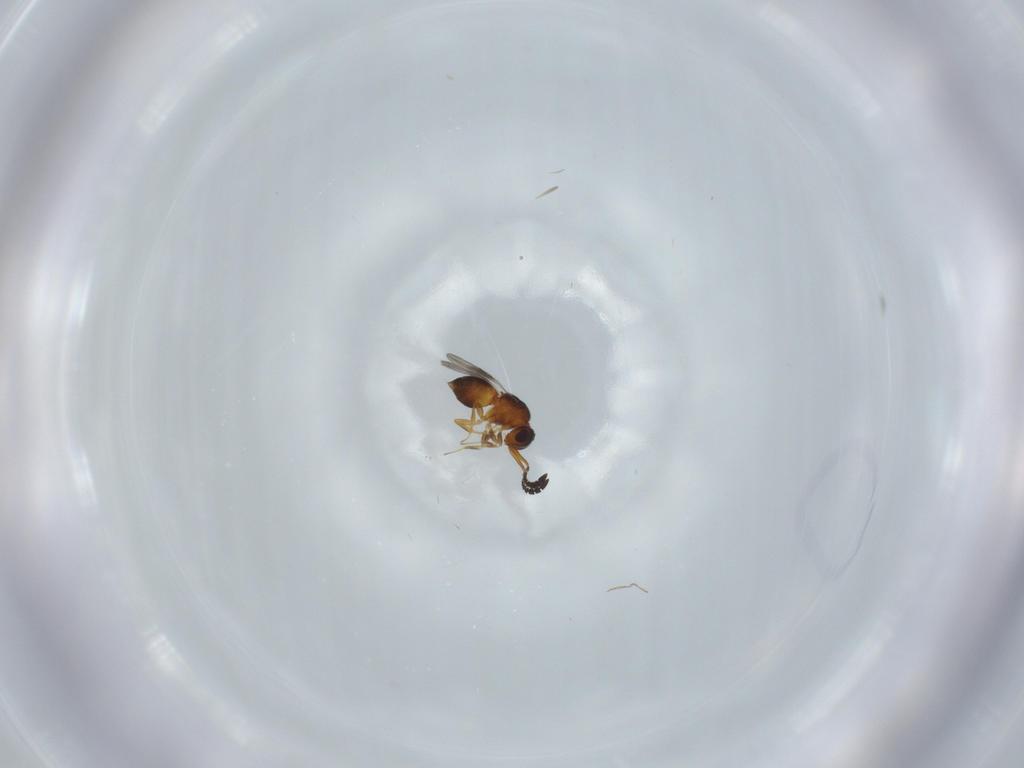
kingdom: Animalia
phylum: Arthropoda
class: Insecta
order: Hymenoptera
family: Ceraphronidae
